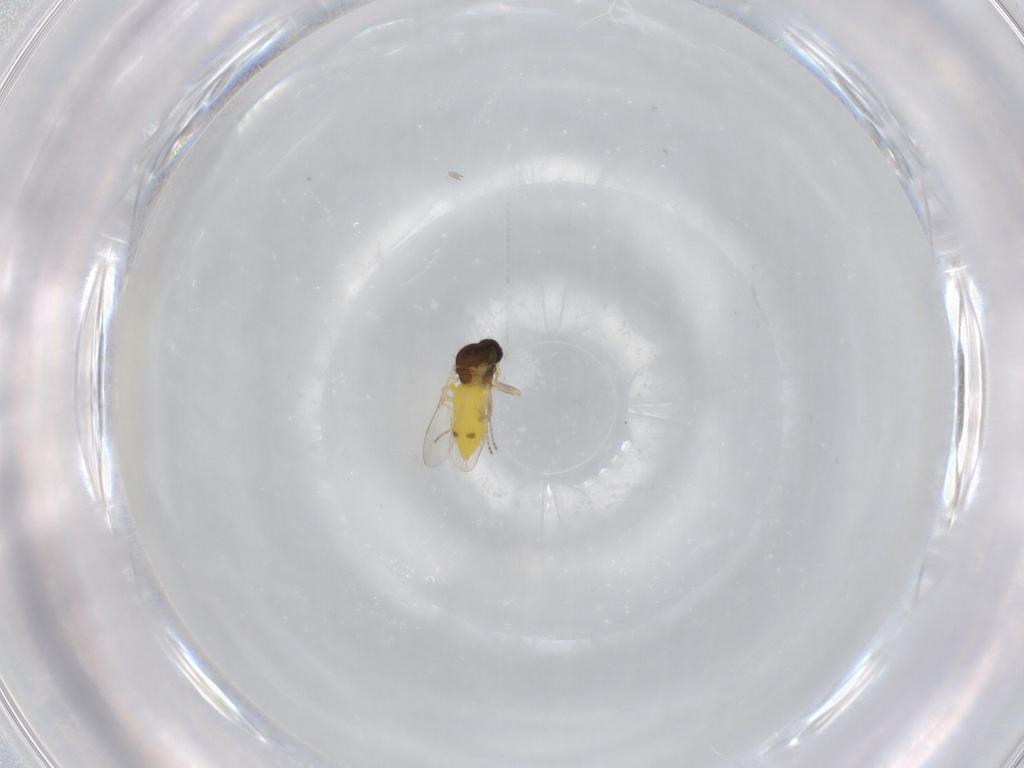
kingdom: Animalia
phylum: Arthropoda
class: Insecta
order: Diptera
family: Ceratopogonidae
